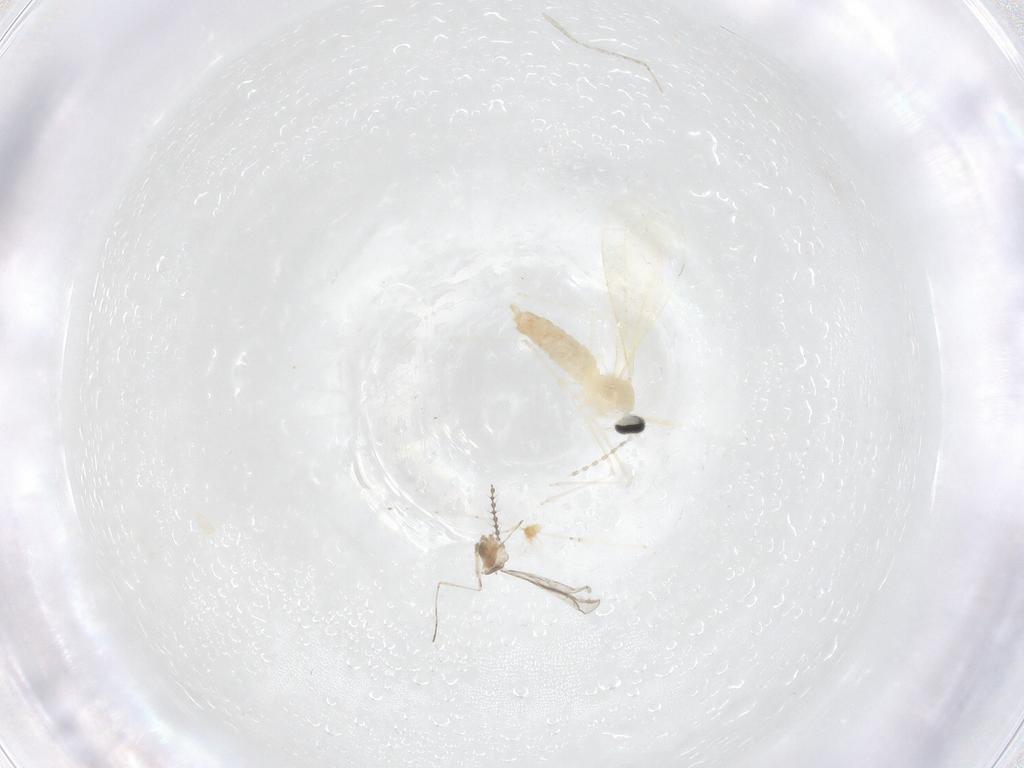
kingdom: Animalia
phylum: Arthropoda
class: Insecta
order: Diptera
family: Cecidomyiidae
